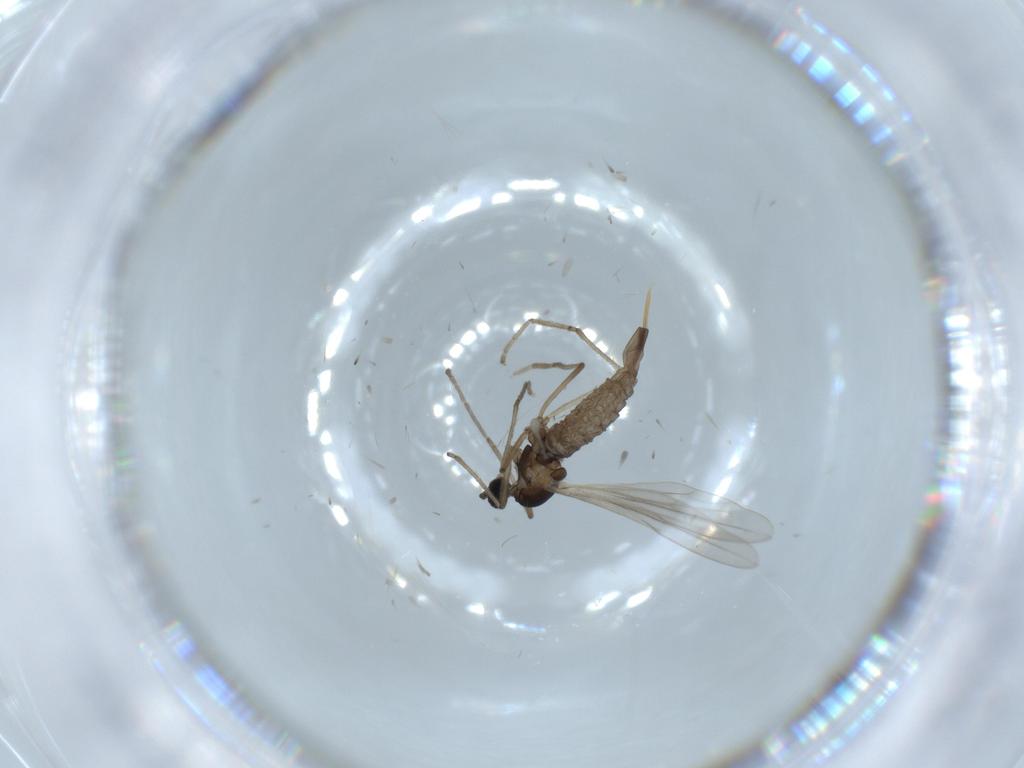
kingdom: Animalia
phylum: Arthropoda
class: Insecta
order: Diptera
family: Cecidomyiidae
